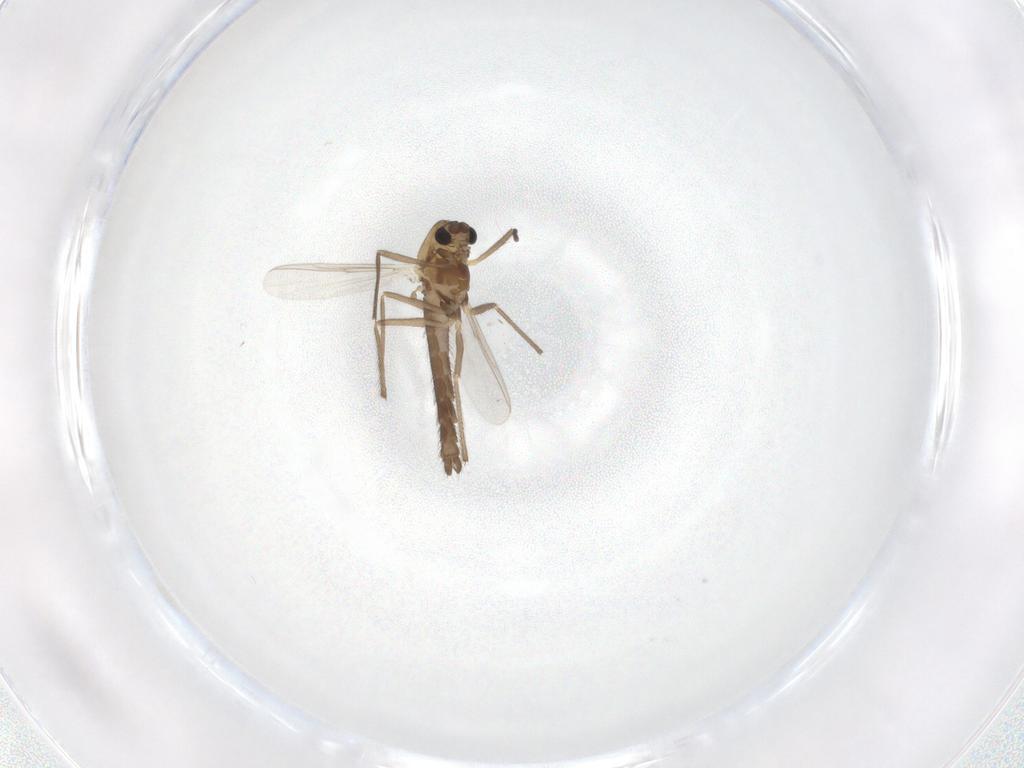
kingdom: Animalia
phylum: Arthropoda
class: Insecta
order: Diptera
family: Chironomidae
